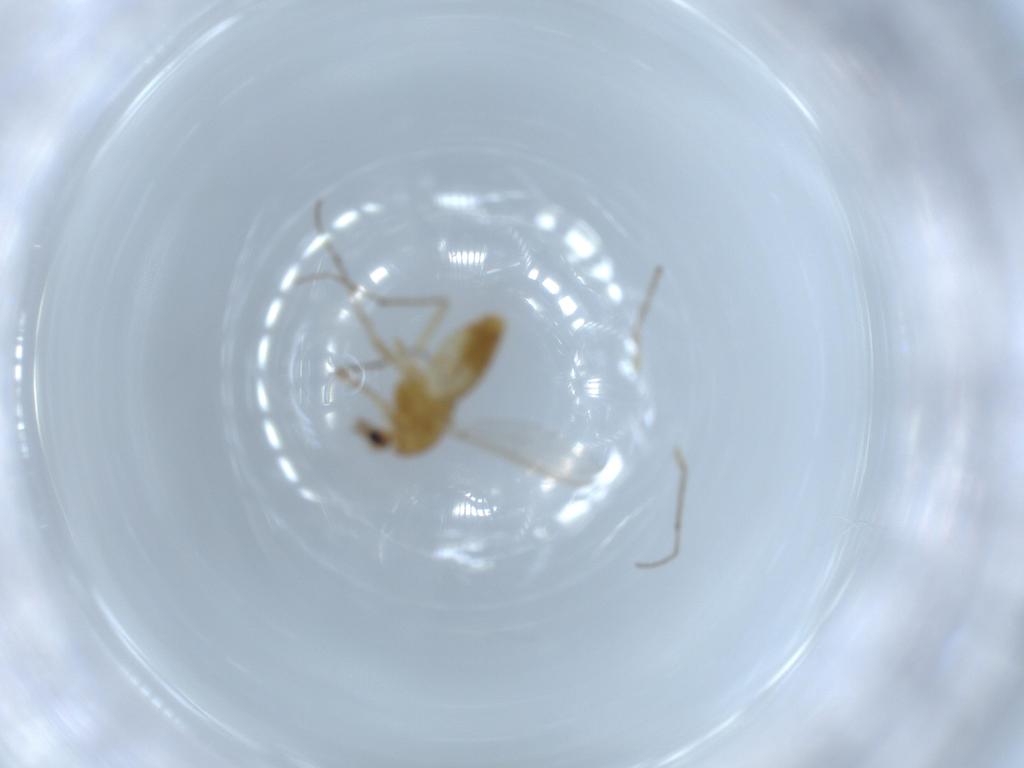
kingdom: Animalia
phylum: Arthropoda
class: Insecta
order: Diptera
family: Chironomidae
